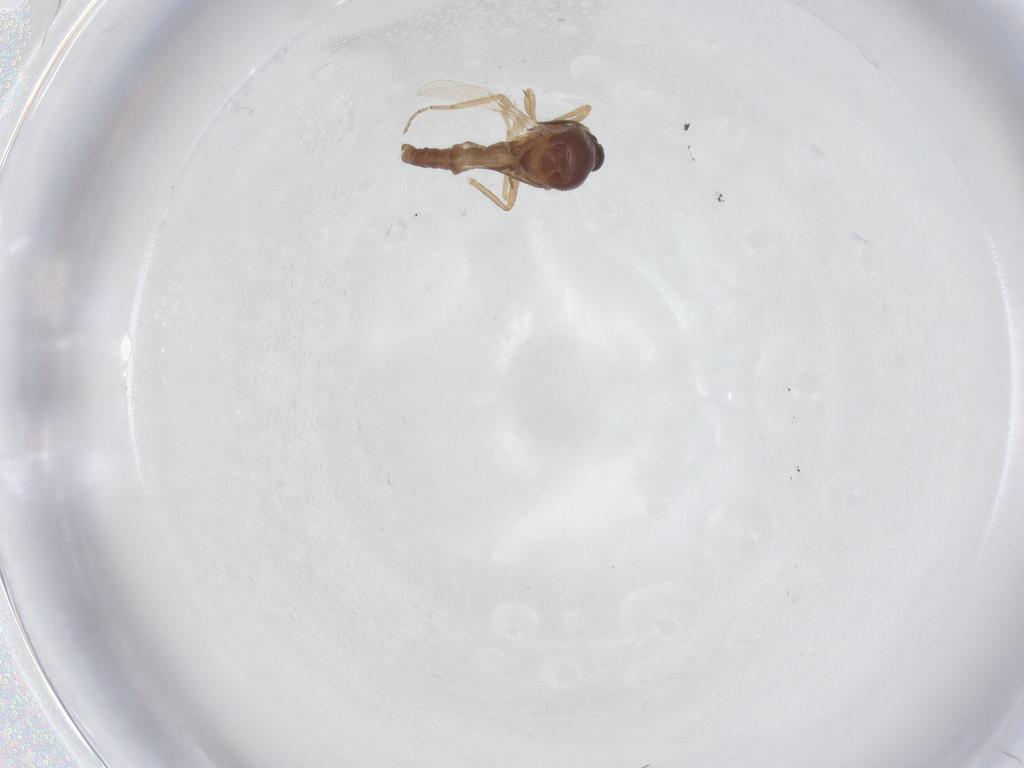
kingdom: Animalia
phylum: Arthropoda
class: Insecta
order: Diptera
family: Ceratopogonidae
